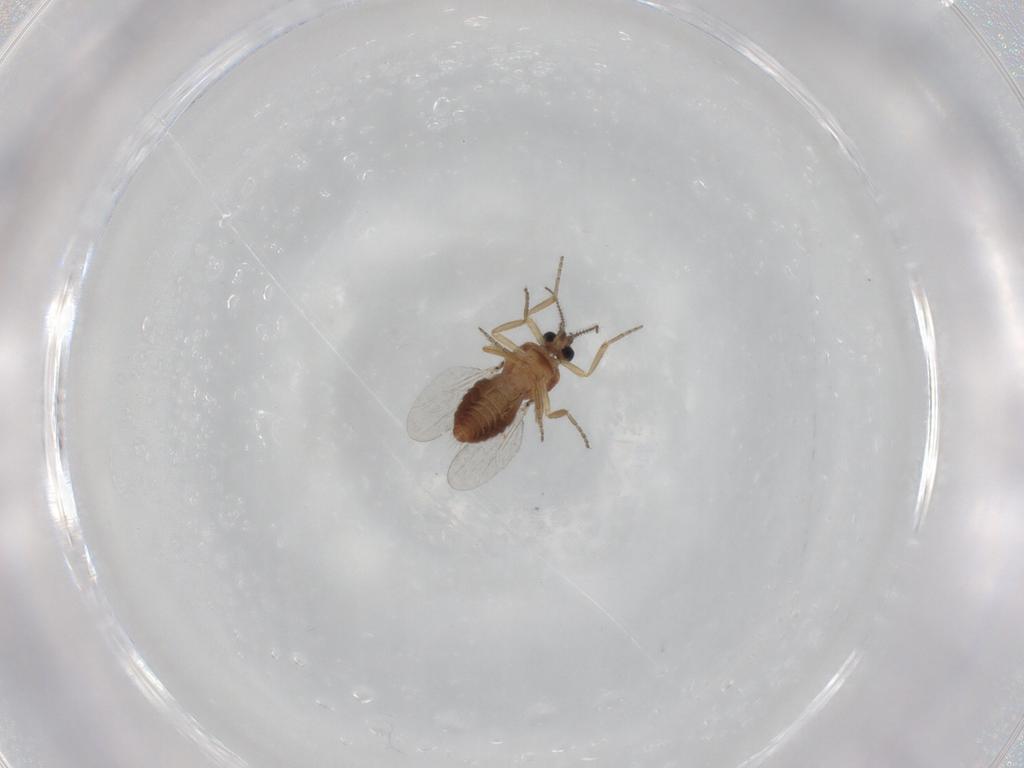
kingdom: Animalia
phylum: Arthropoda
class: Insecta
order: Diptera
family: Ceratopogonidae
